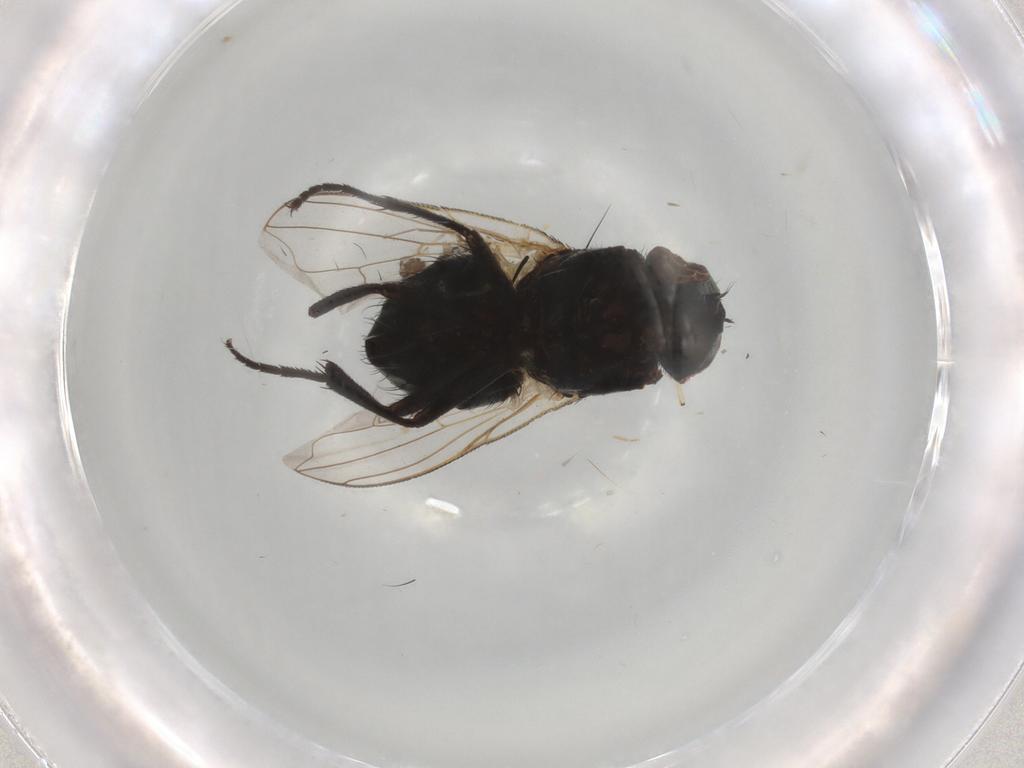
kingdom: Animalia
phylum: Arthropoda
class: Insecta
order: Diptera
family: Glossinidae
